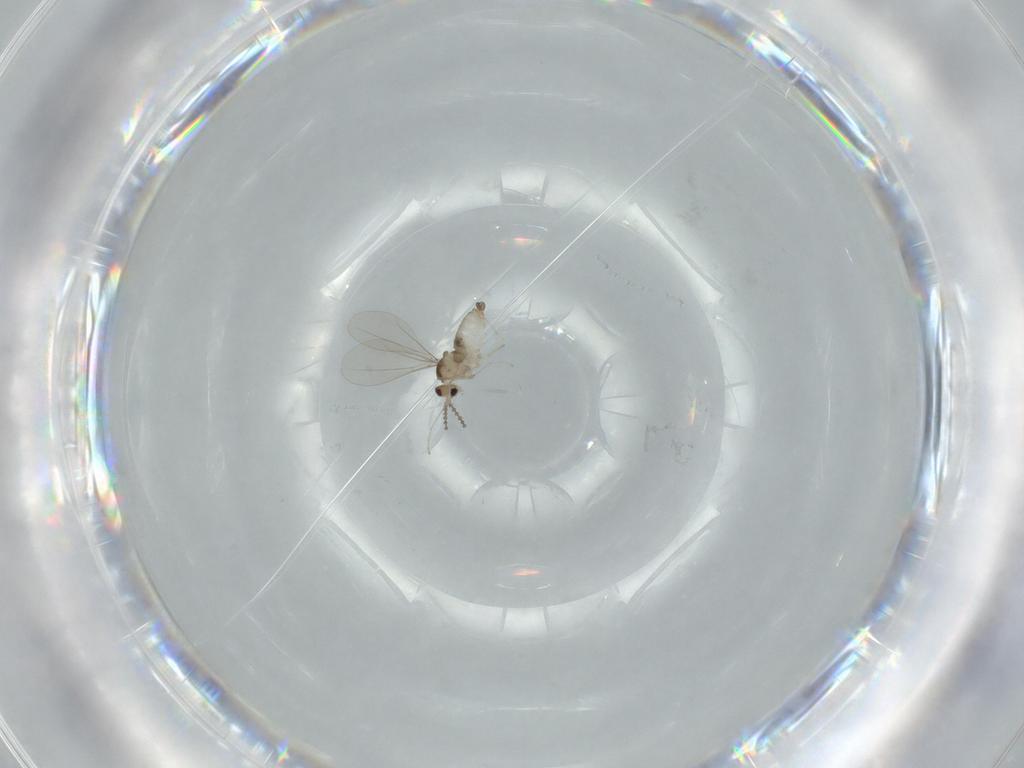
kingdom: Animalia
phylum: Arthropoda
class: Insecta
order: Diptera
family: Cecidomyiidae
